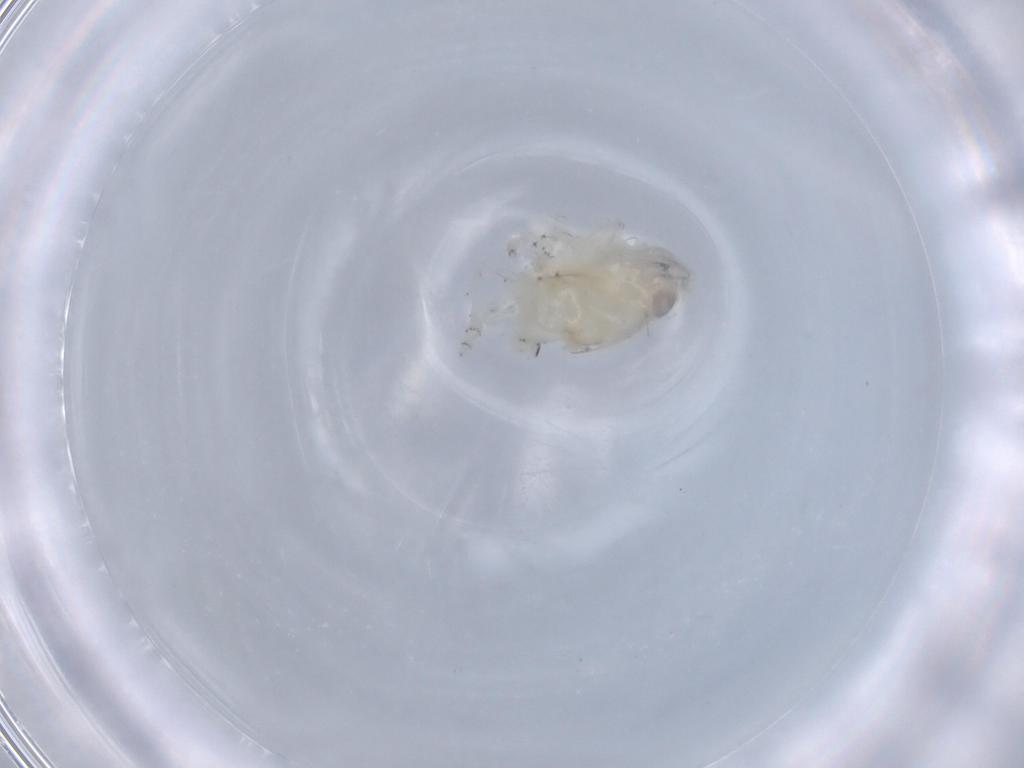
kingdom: Animalia
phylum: Arthropoda
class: Insecta
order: Hemiptera
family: Nogodinidae
